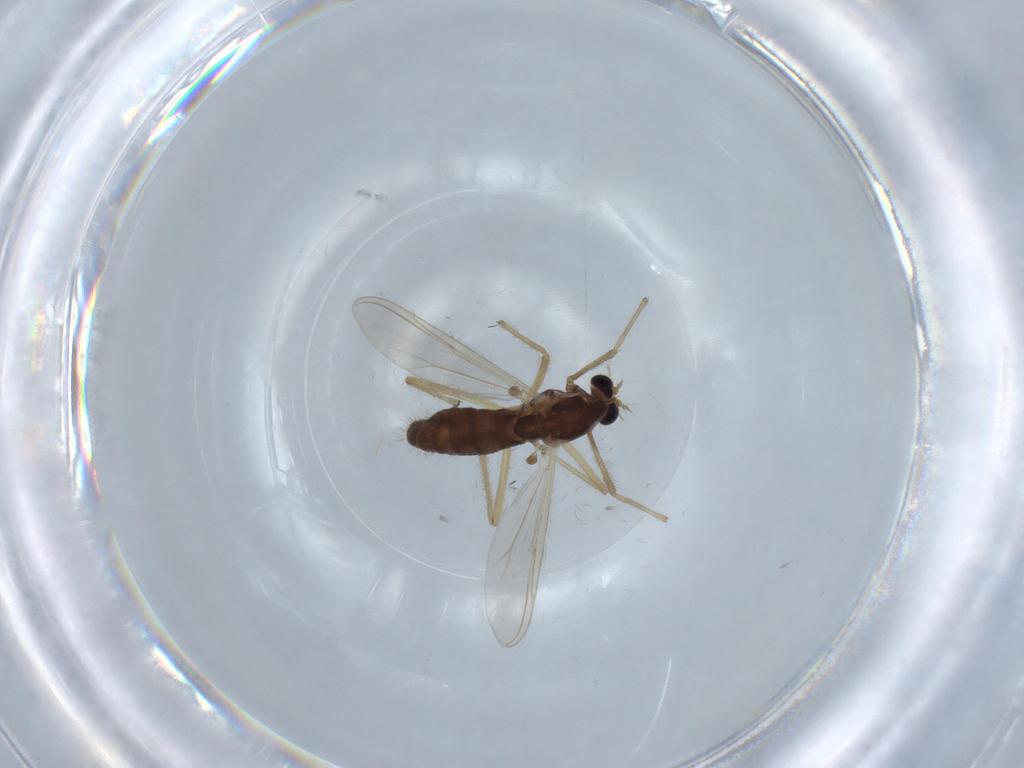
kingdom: Animalia
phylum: Arthropoda
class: Insecta
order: Diptera
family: Chironomidae
